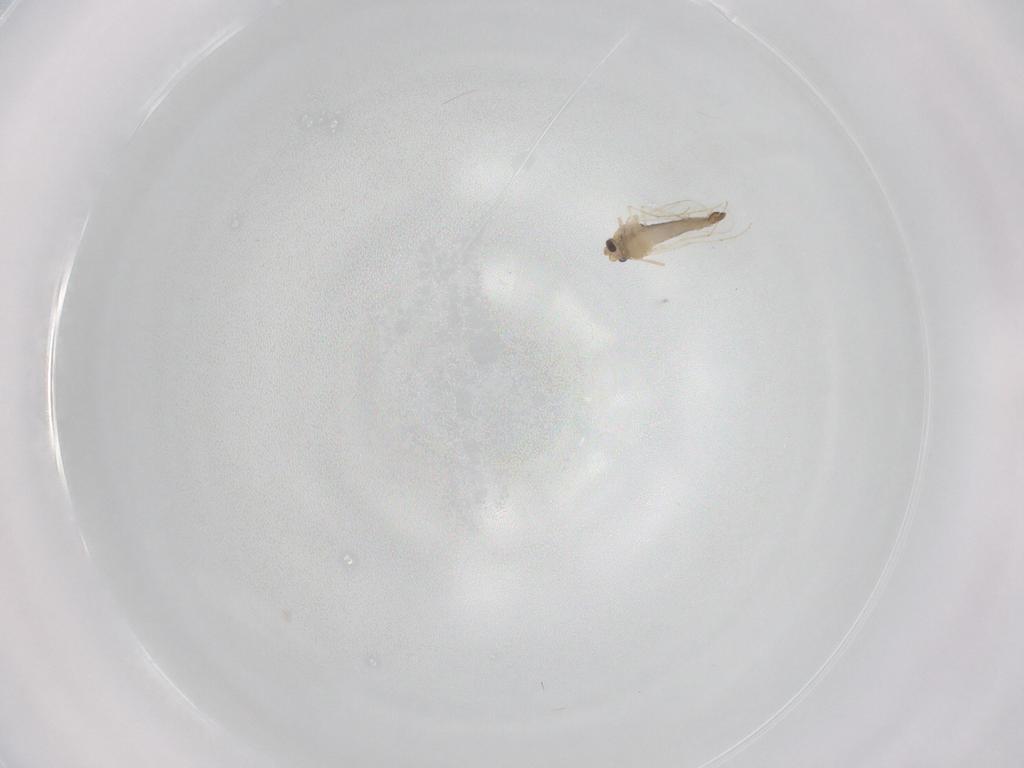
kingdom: Animalia
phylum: Arthropoda
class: Insecta
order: Diptera
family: Chironomidae
